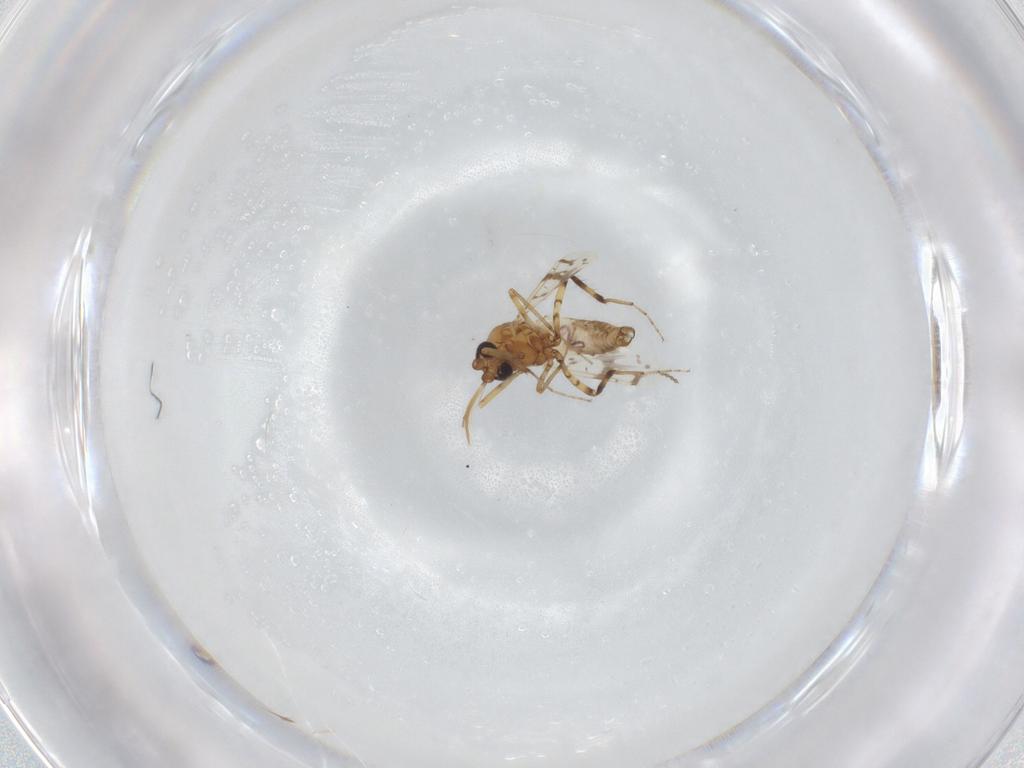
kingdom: Animalia
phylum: Arthropoda
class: Insecta
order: Diptera
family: Ceratopogonidae
